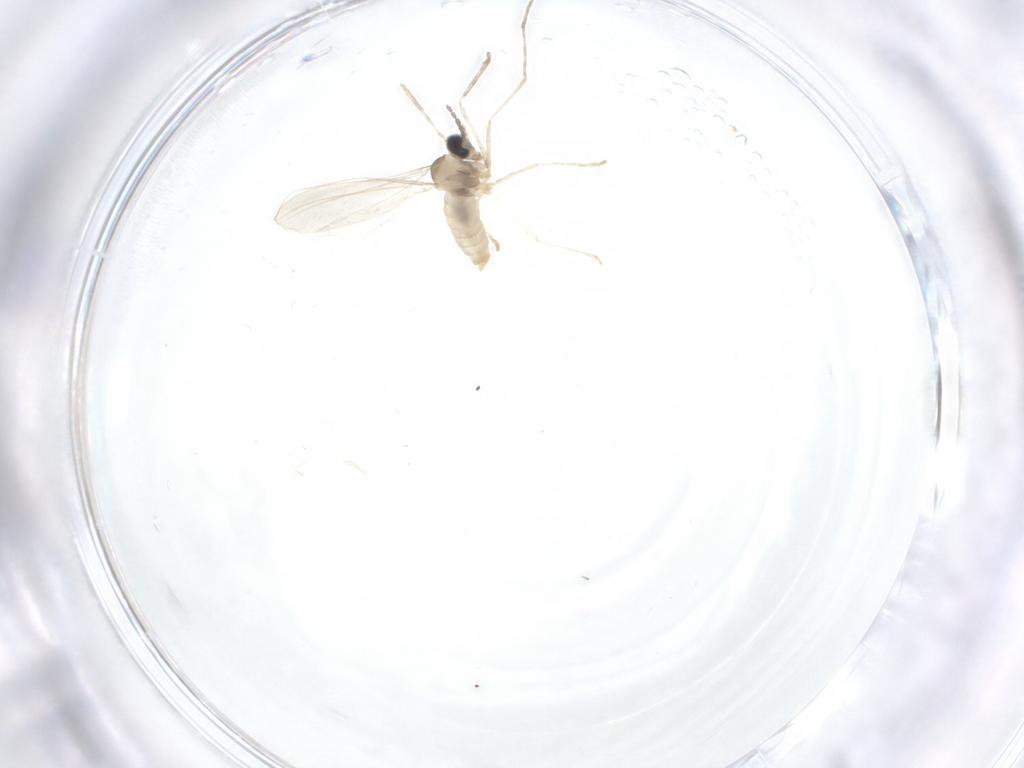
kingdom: Animalia
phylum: Arthropoda
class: Insecta
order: Diptera
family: Cecidomyiidae
